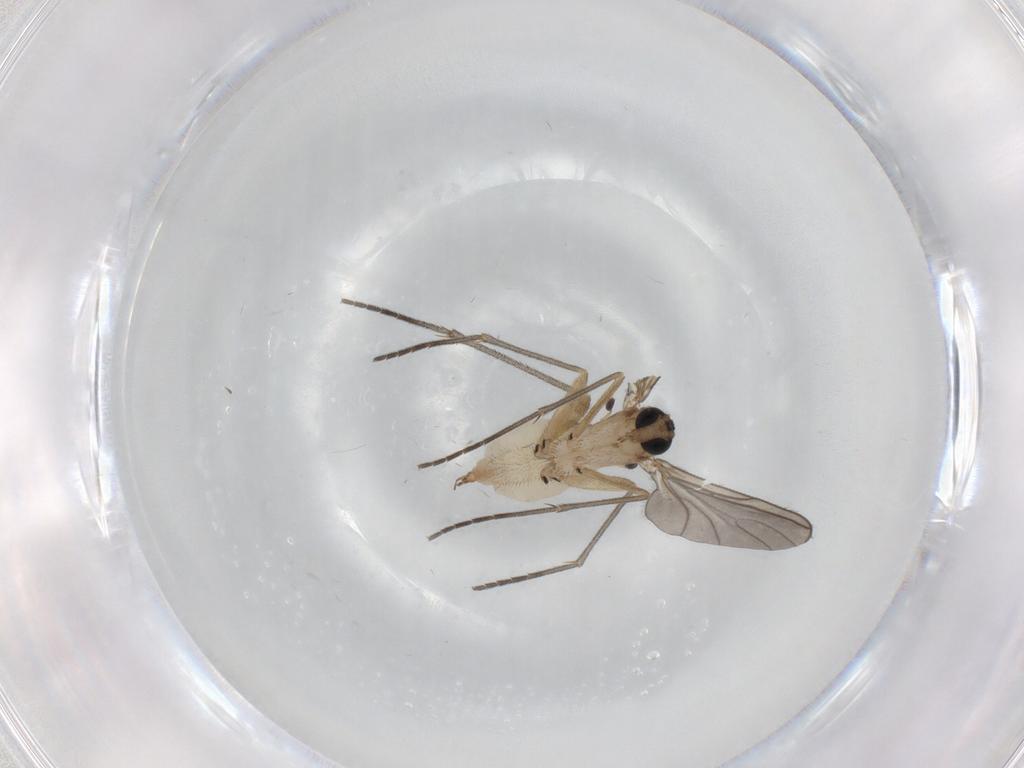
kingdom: Animalia
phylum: Arthropoda
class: Insecta
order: Diptera
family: Sciaridae
